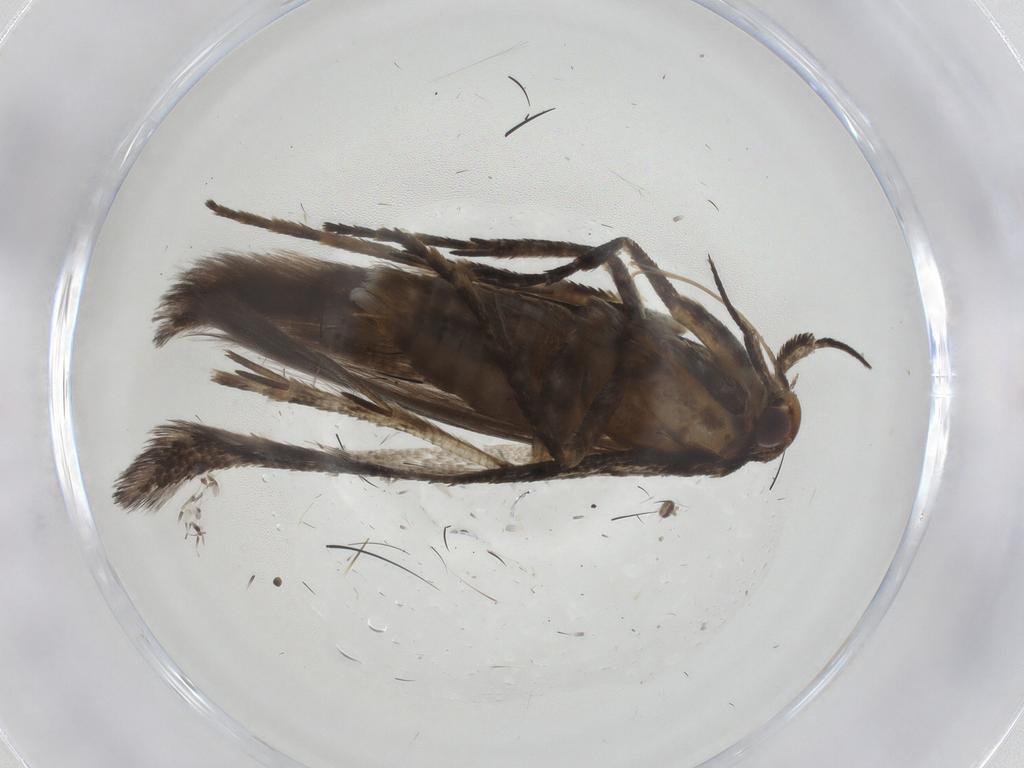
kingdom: Animalia
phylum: Arthropoda
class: Insecta
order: Lepidoptera
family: Gelechiidae
